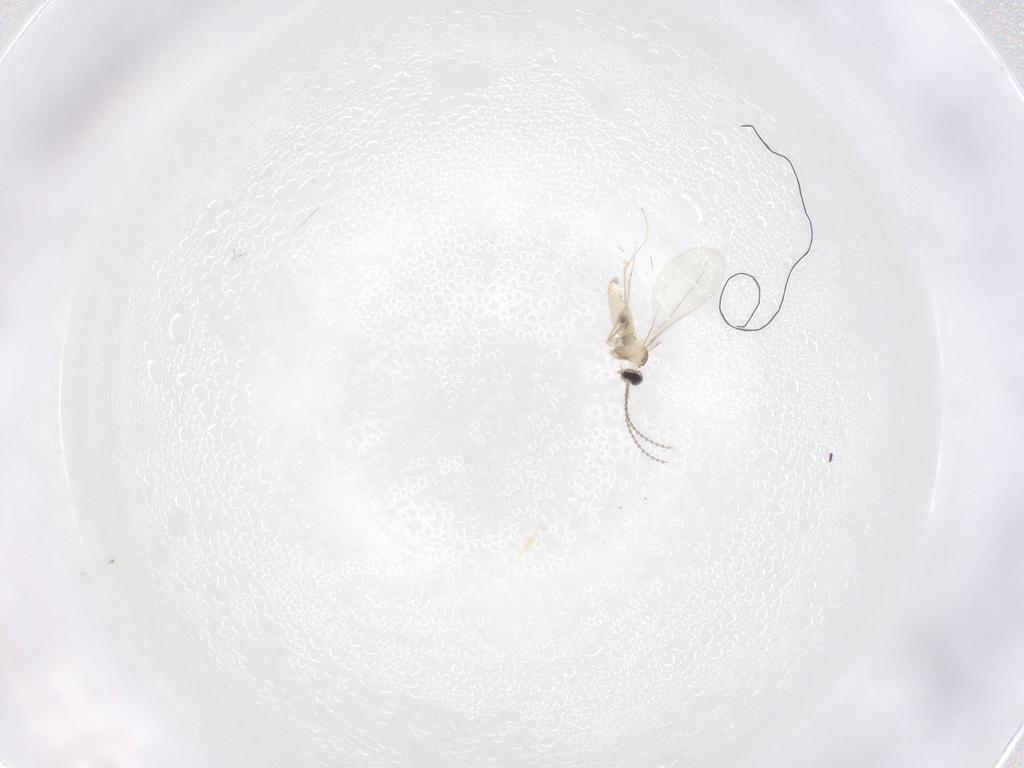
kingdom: Animalia
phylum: Arthropoda
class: Insecta
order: Diptera
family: Cecidomyiidae
